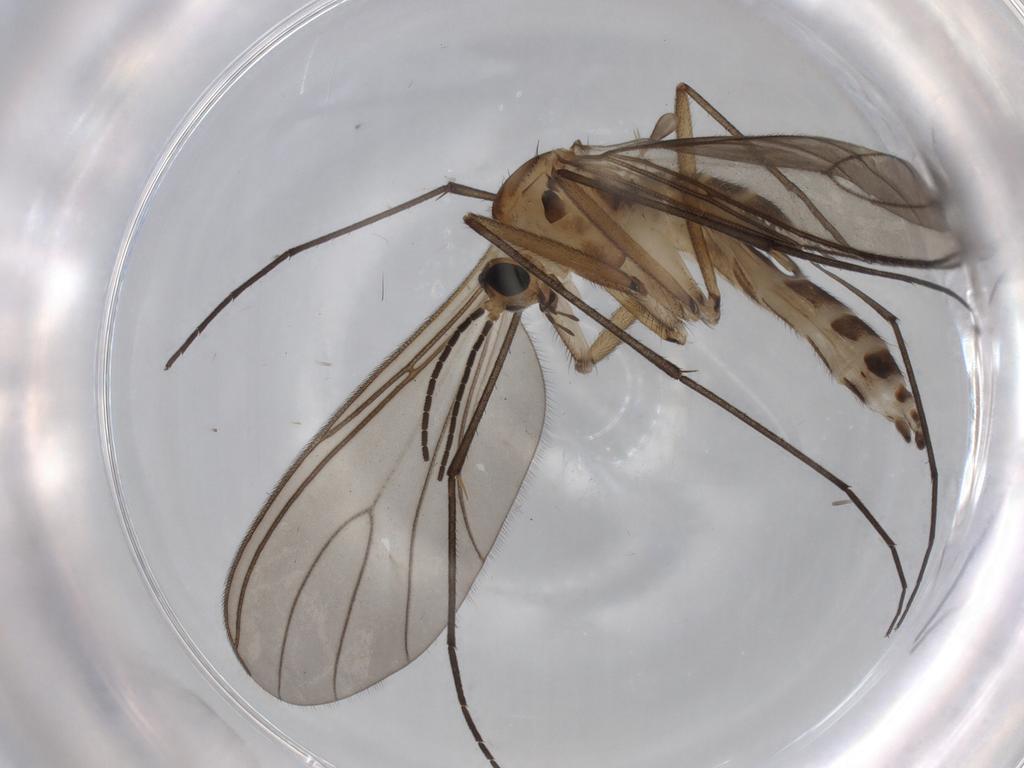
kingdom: Animalia
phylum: Arthropoda
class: Insecta
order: Diptera
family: Sciaridae
